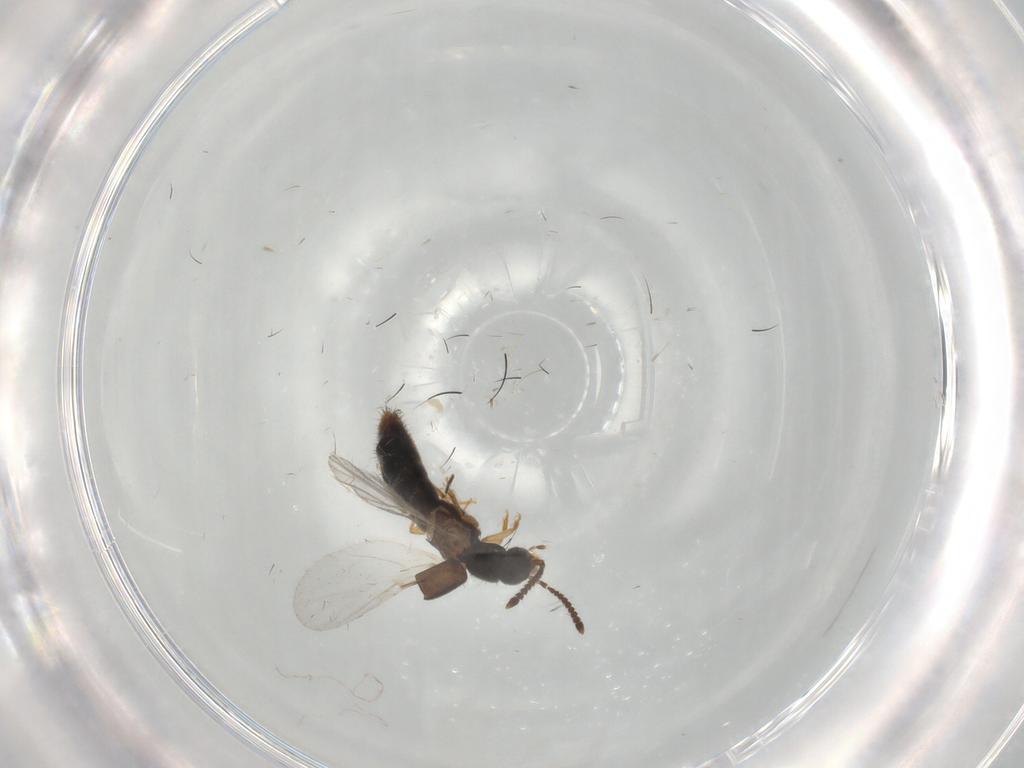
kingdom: Animalia
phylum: Arthropoda
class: Insecta
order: Coleoptera
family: Staphylinidae
